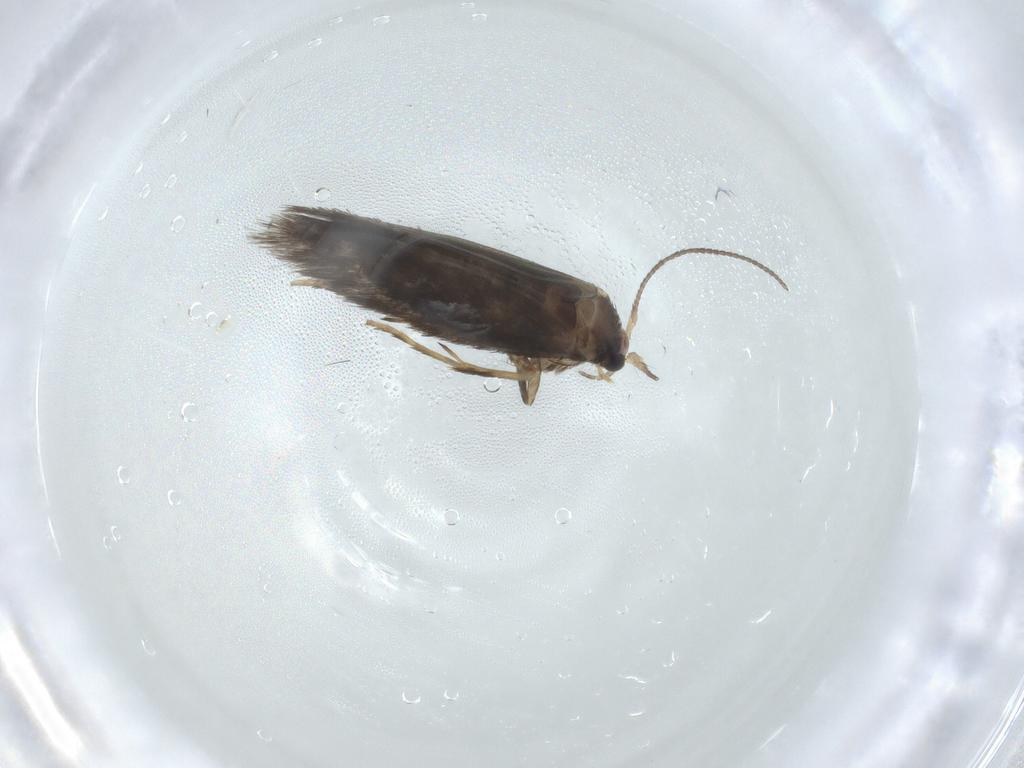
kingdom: Animalia
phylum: Arthropoda
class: Insecta
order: Lepidoptera
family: Nepticulidae
